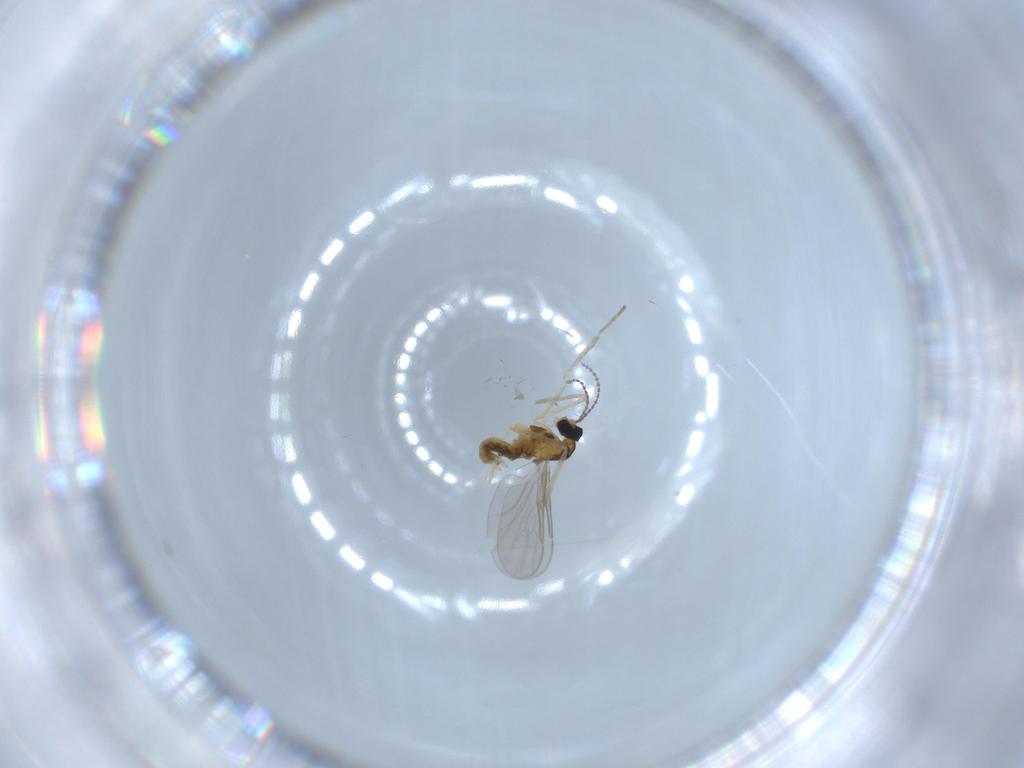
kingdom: Animalia
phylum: Arthropoda
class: Insecta
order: Diptera
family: Cecidomyiidae
